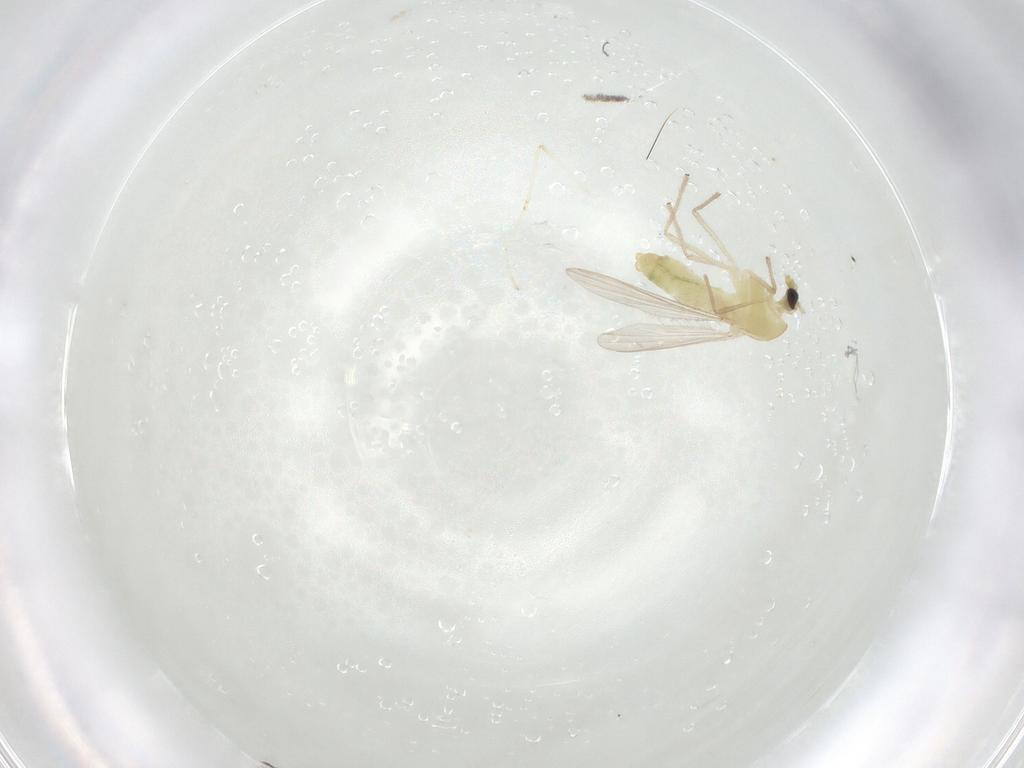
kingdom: Animalia
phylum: Arthropoda
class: Insecta
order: Diptera
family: Chironomidae
